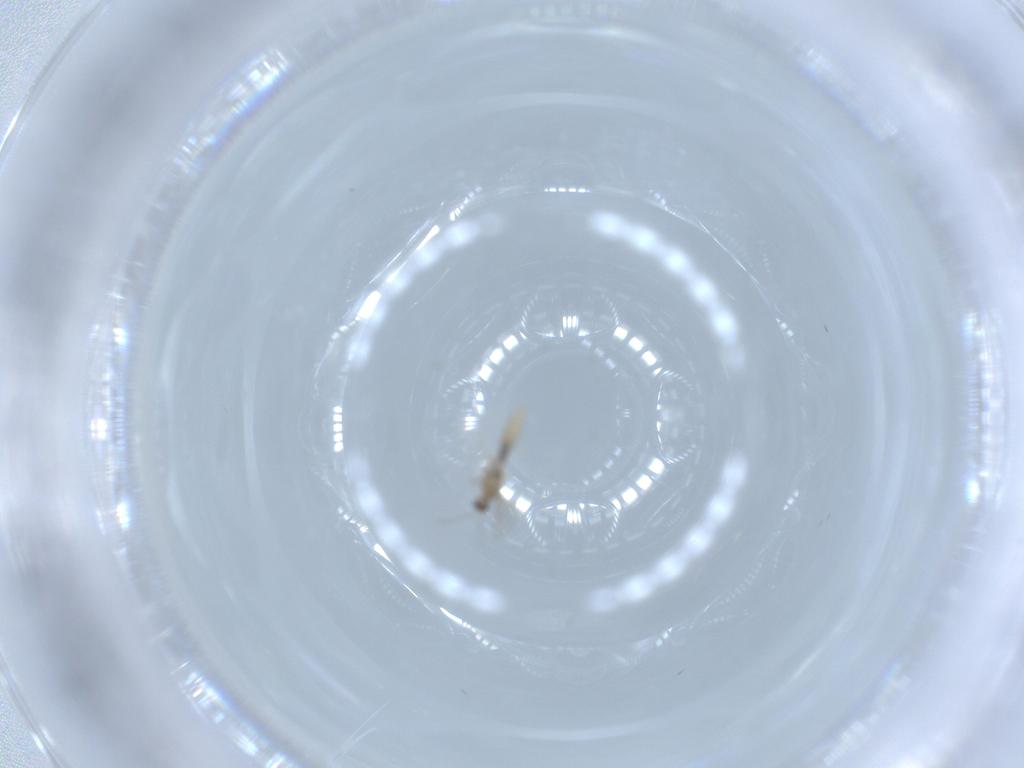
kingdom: Animalia
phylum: Arthropoda
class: Insecta
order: Diptera
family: Chironomidae
